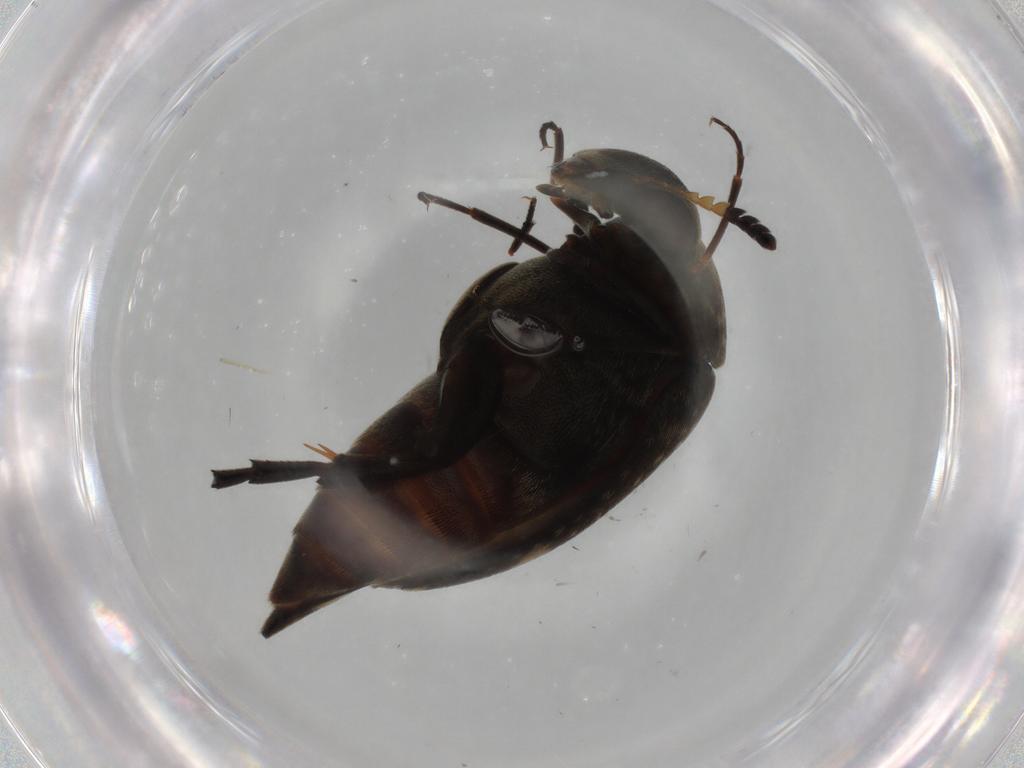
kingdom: Animalia
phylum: Arthropoda
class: Insecta
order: Coleoptera
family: Mordellidae
